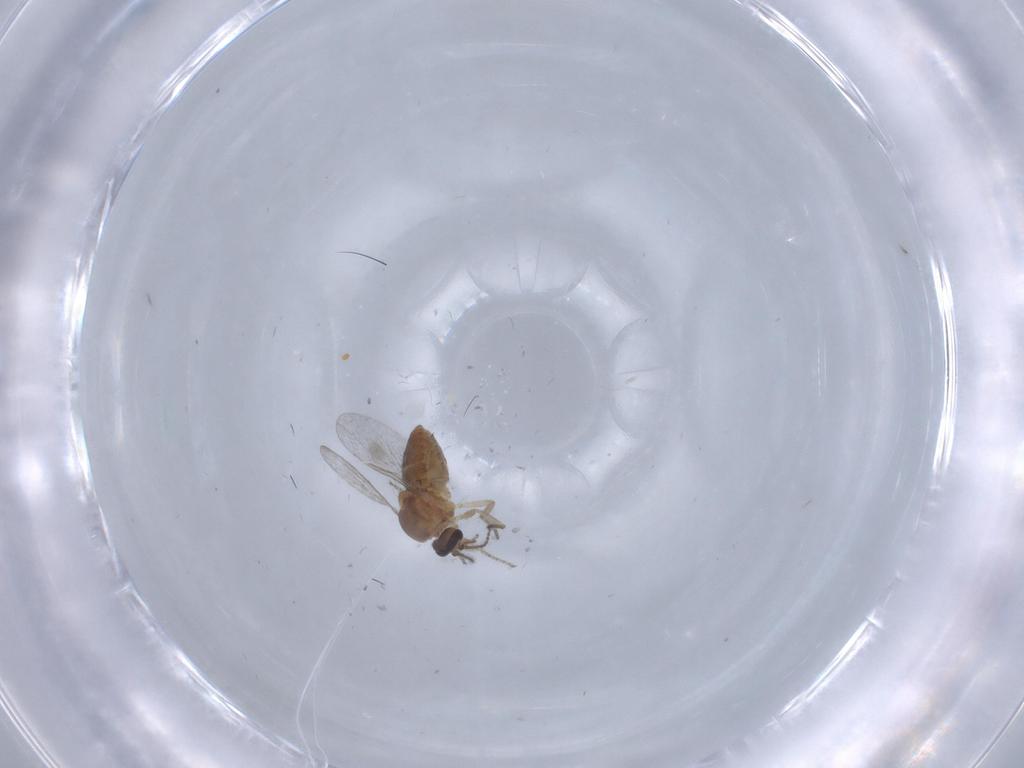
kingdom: Animalia
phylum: Arthropoda
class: Insecta
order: Diptera
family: Ceratopogonidae
